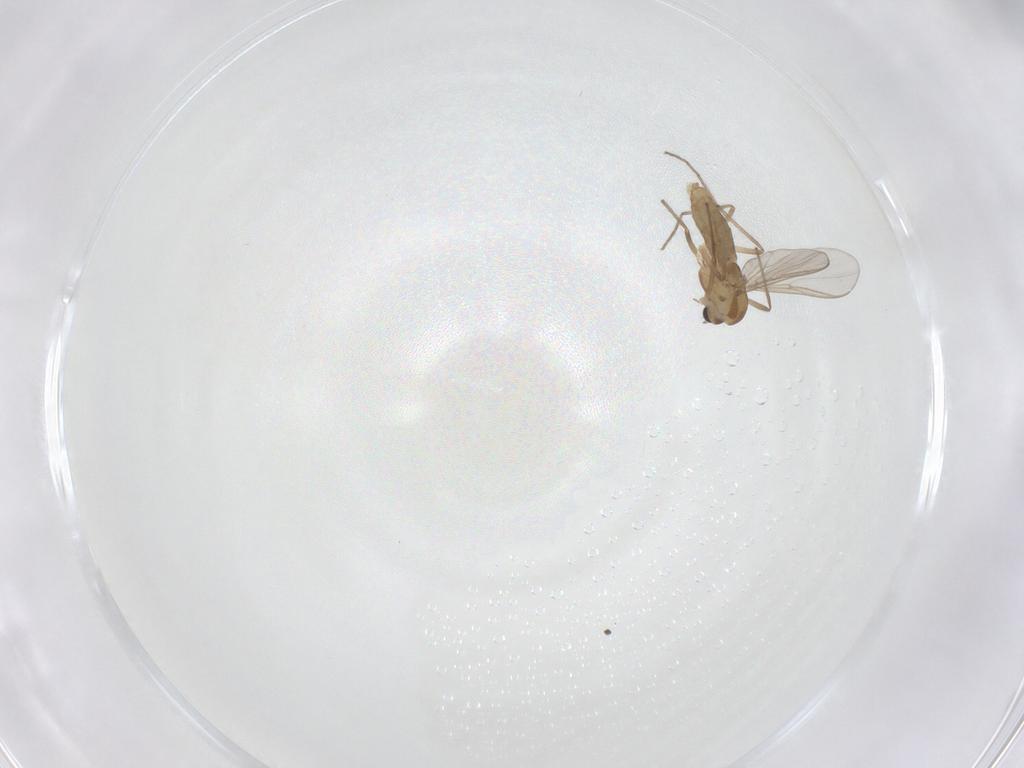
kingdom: Animalia
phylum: Arthropoda
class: Insecta
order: Diptera
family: Chironomidae
